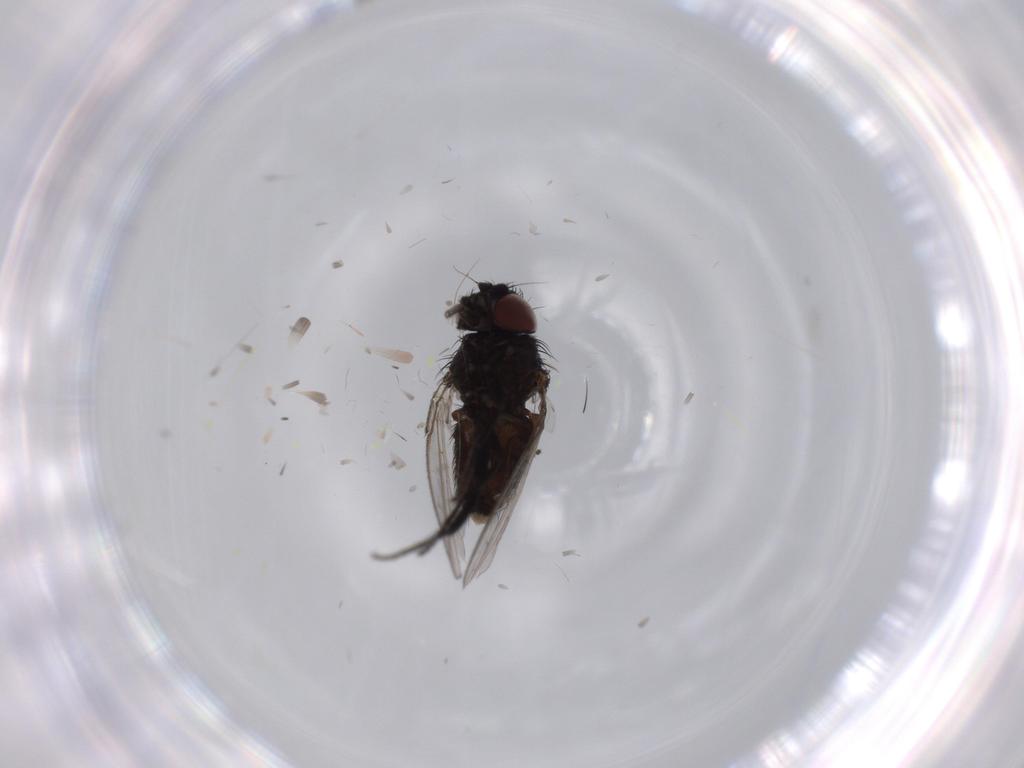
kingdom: Animalia
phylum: Arthropoda
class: Insecta
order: Diptera
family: Milichiidae
